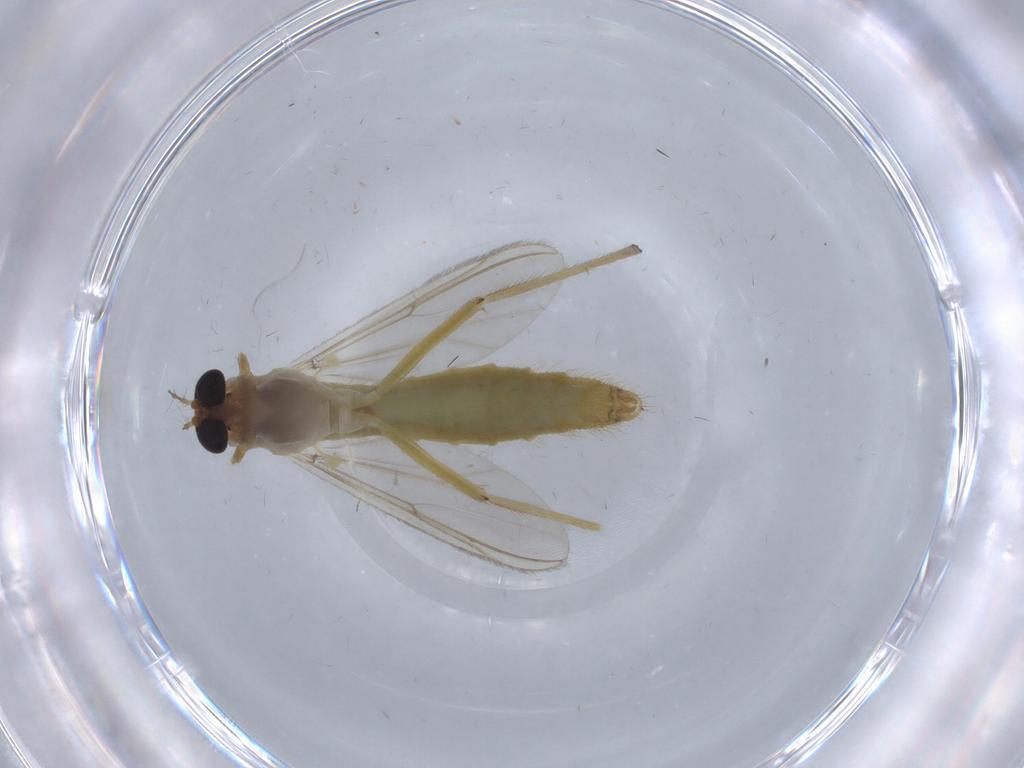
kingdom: Animalia
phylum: Arthropoda
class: Insecta
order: Diptera
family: Chironomidae
